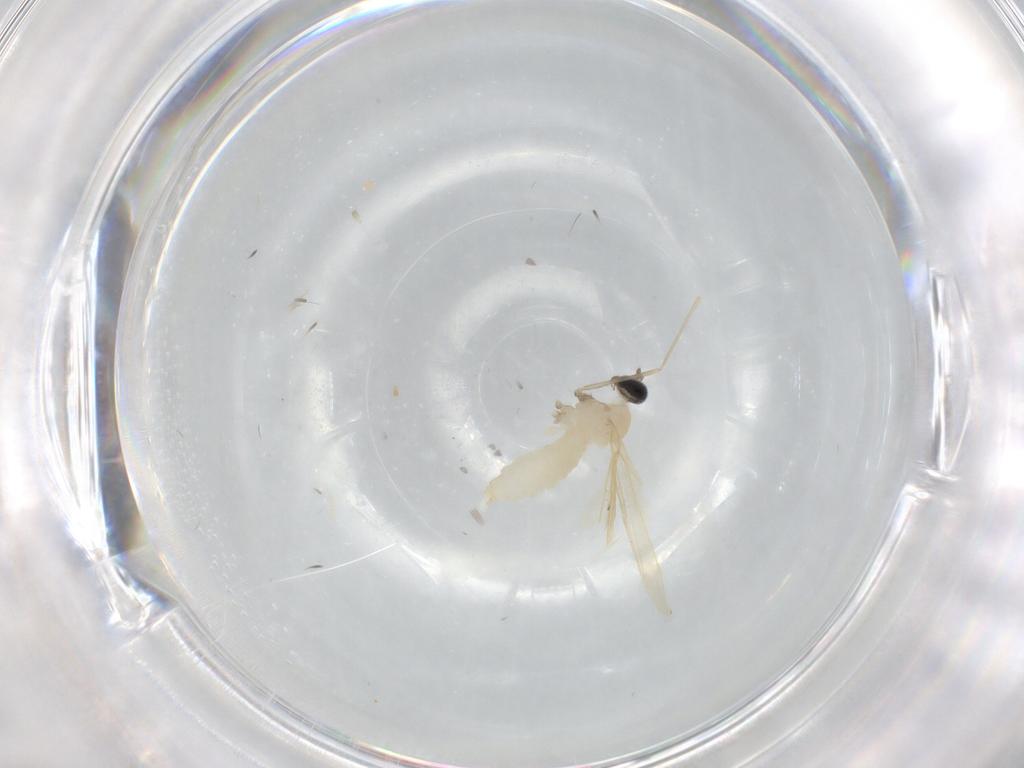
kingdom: Animalia
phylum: Arthropoda
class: Insecta
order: Diptera
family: Cecidomyiidae
